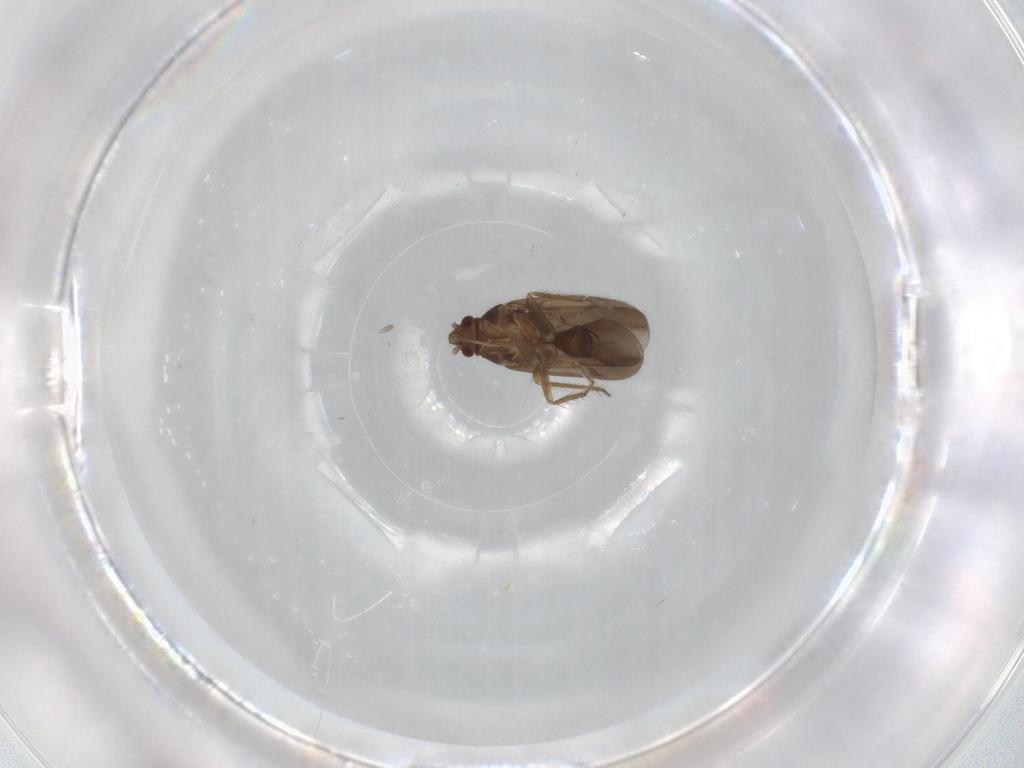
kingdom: Animalia
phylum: Arthropoda
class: Insecta
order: Hemiptera
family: Ceratocombidae
